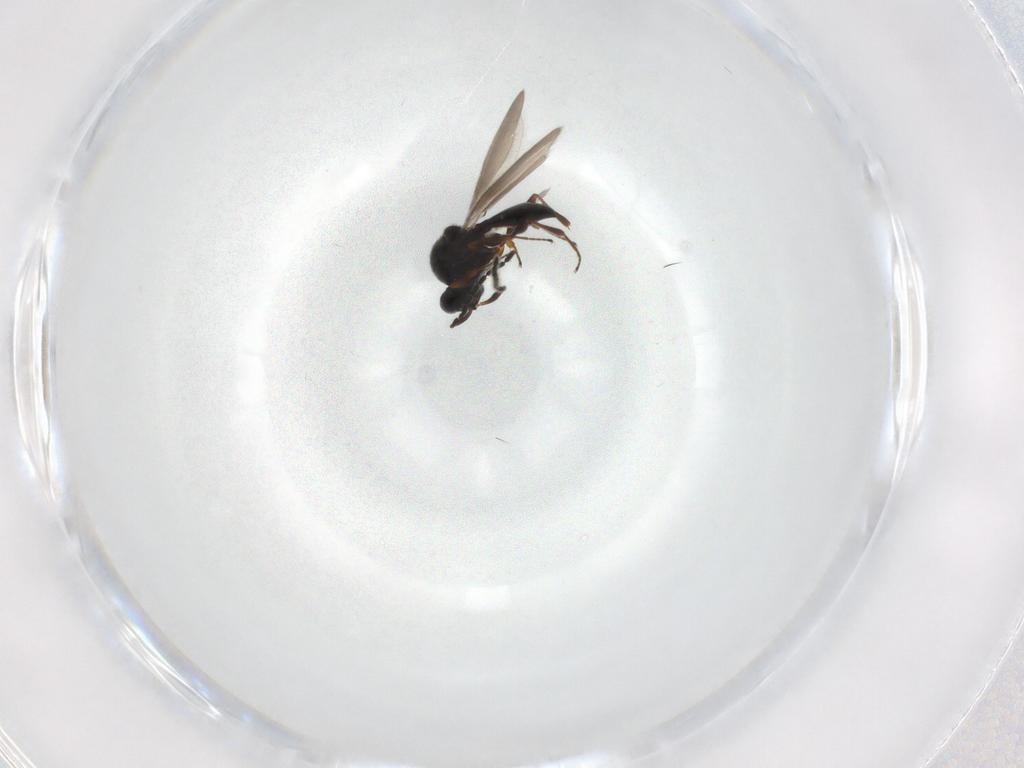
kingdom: Animalia
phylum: Arthropoda
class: Insecta
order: Hymenoptera
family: Platygastridae
